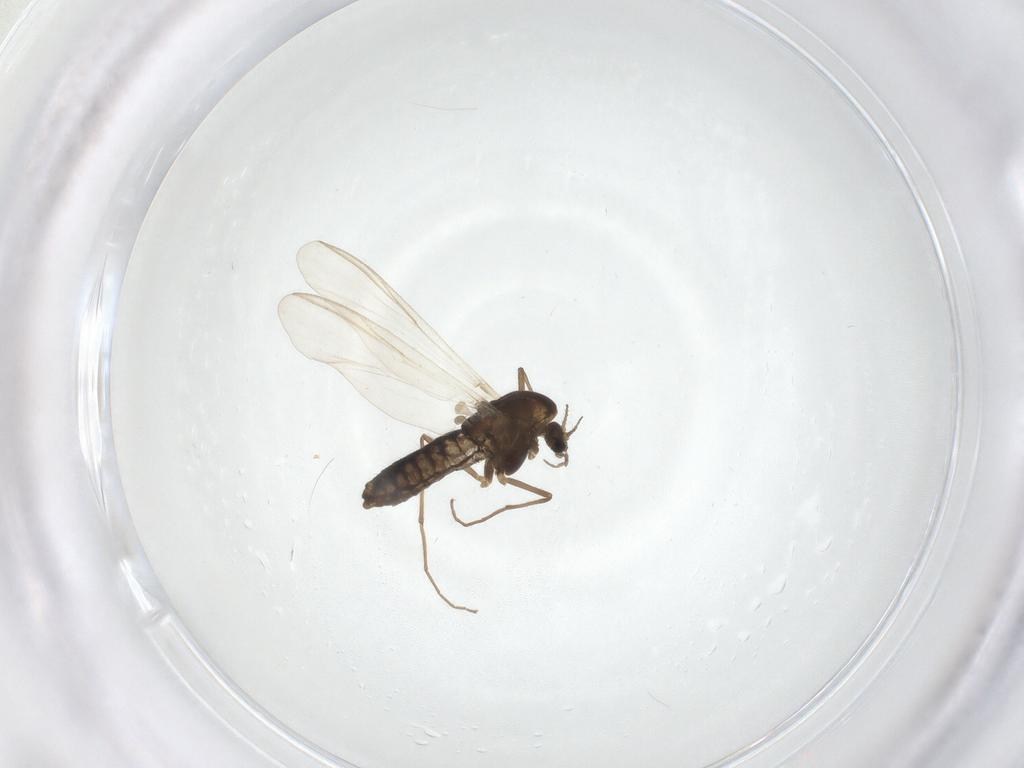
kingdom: Animalia
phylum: Arthropoda
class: Insecta
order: Diptera
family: Chironomidae
